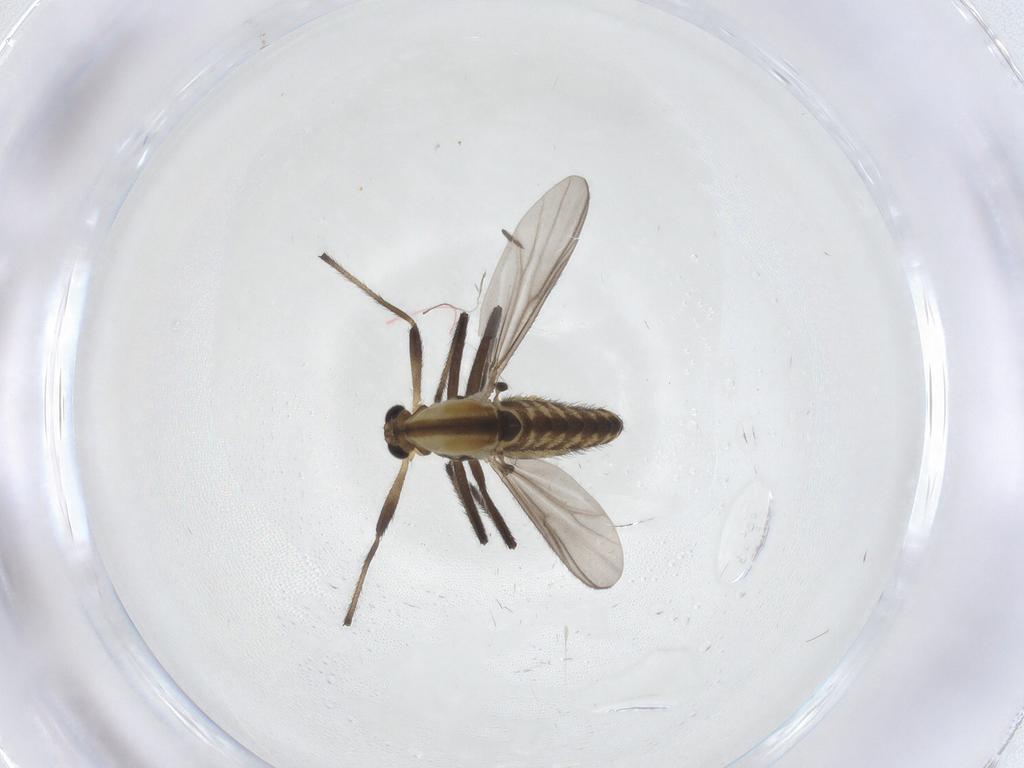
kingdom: Animalia
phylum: Arthropoda
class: Insecta
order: Diptera
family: Chironomidae
